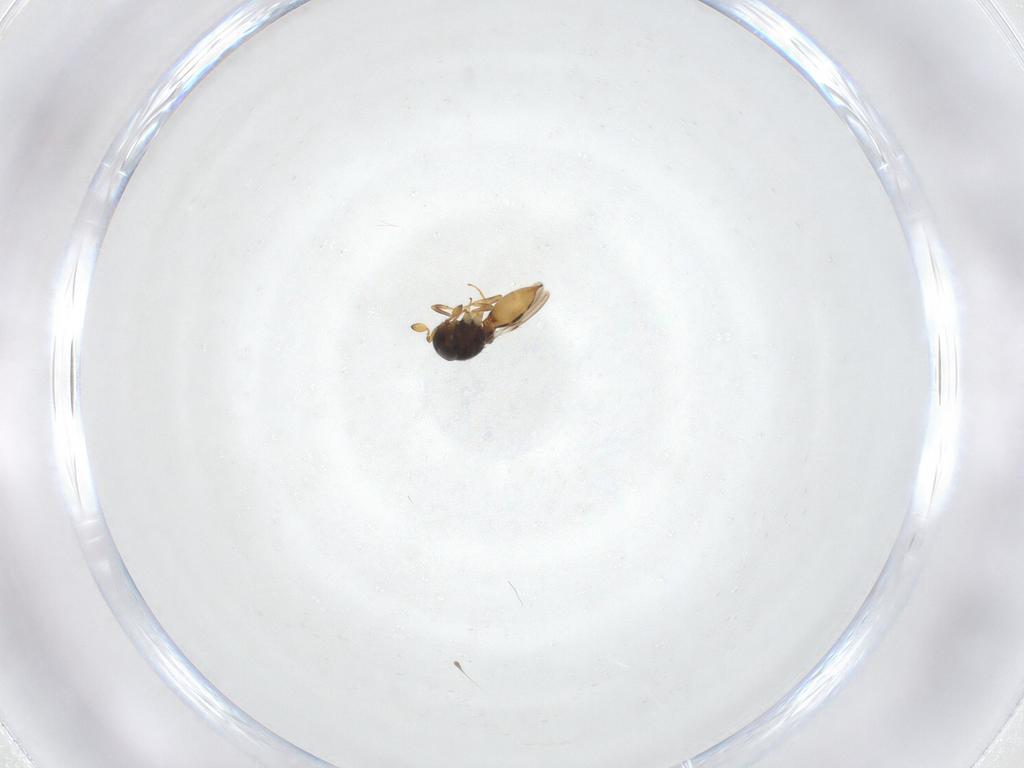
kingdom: Animalia
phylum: Arthropoda
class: Insecta
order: Hymenoptera
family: Scelionidae
